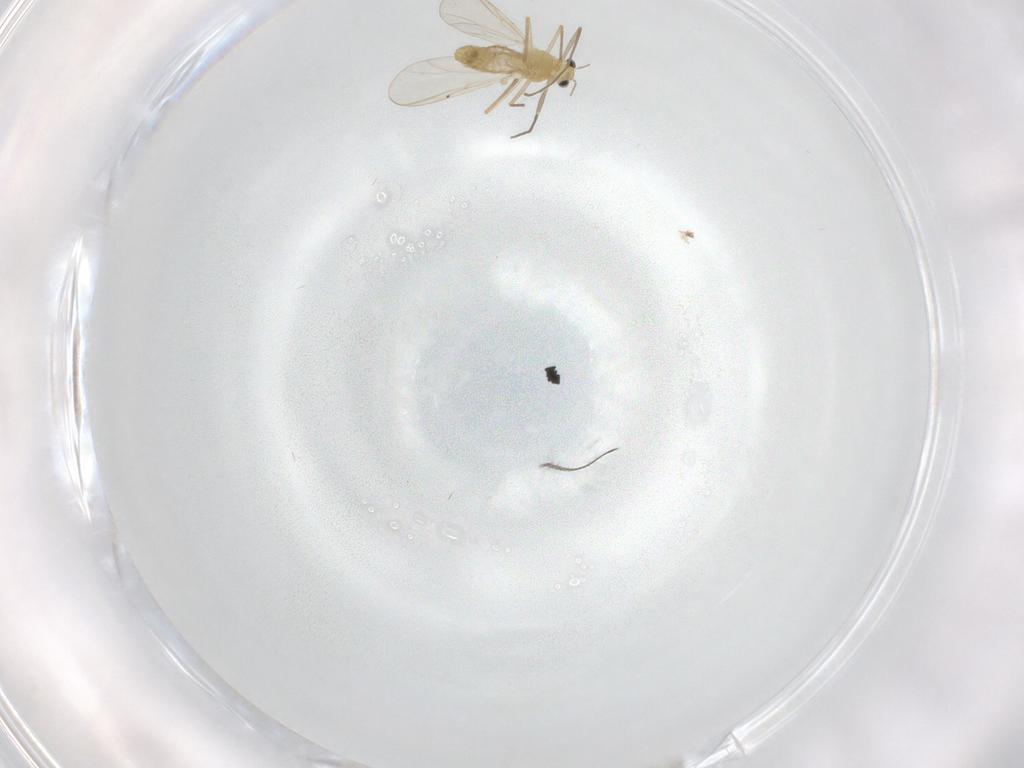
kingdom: Animalia
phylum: Arthropoda
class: Insecta
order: Diptera
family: Chironomidae
